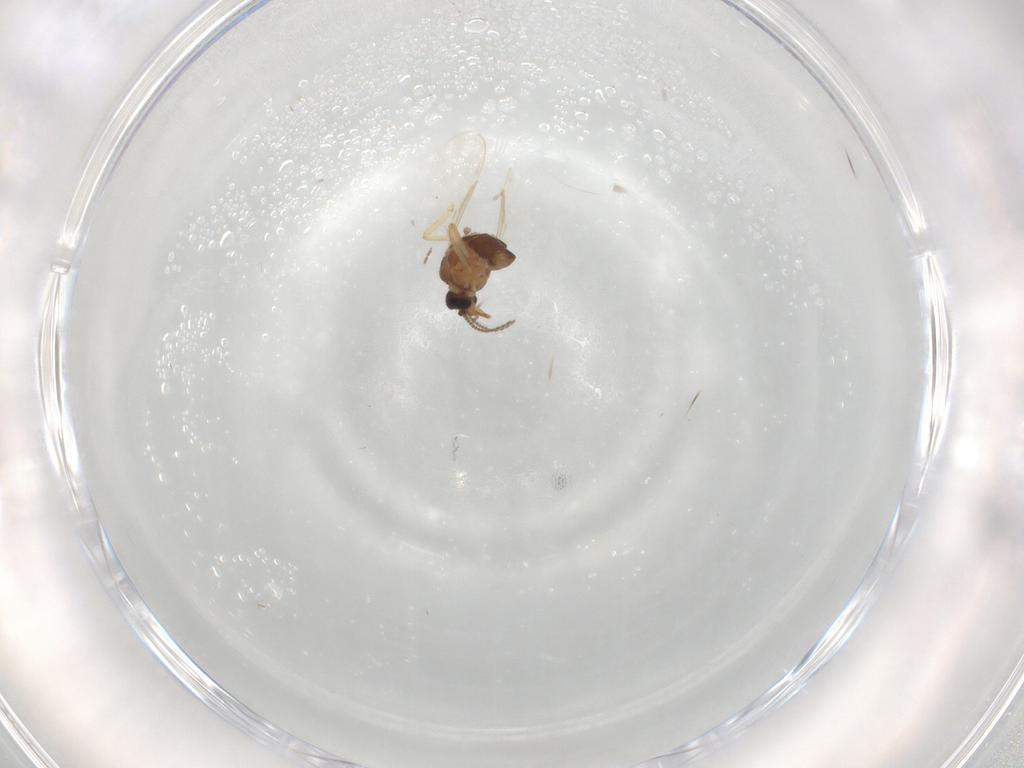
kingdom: Animalia
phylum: Arthropoda
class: Insecta
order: Diptera
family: Ceratopogonidae
